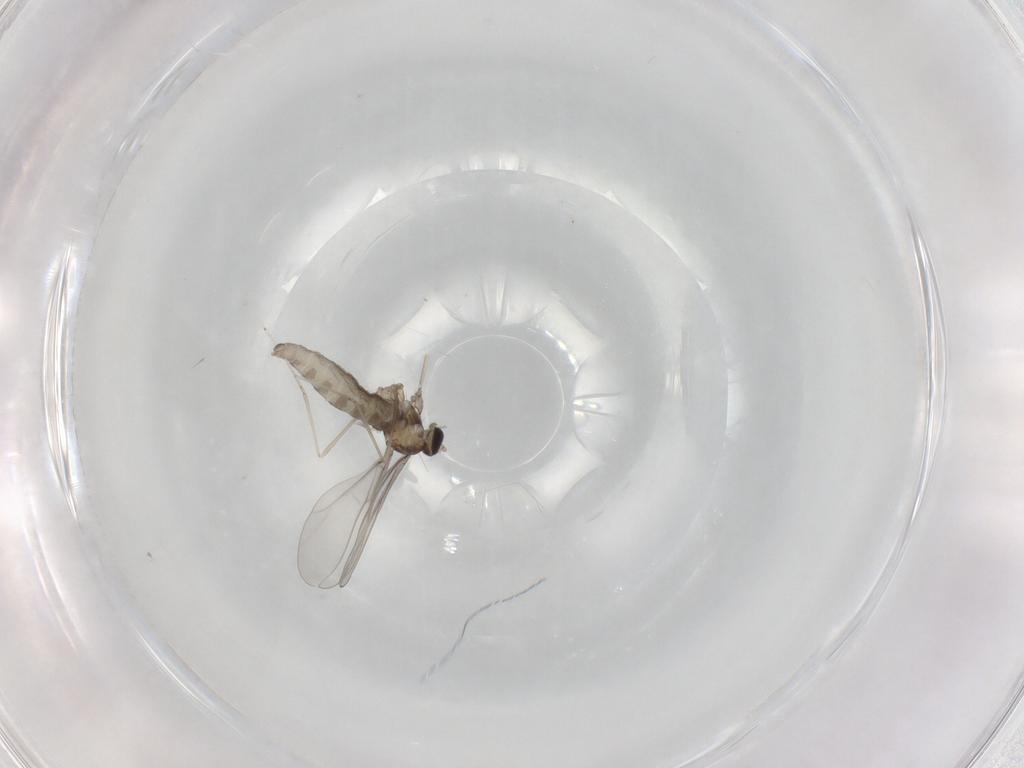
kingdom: Animalia
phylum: Arthropoda
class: Insecta
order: Diptera
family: Cecidomyiidae
